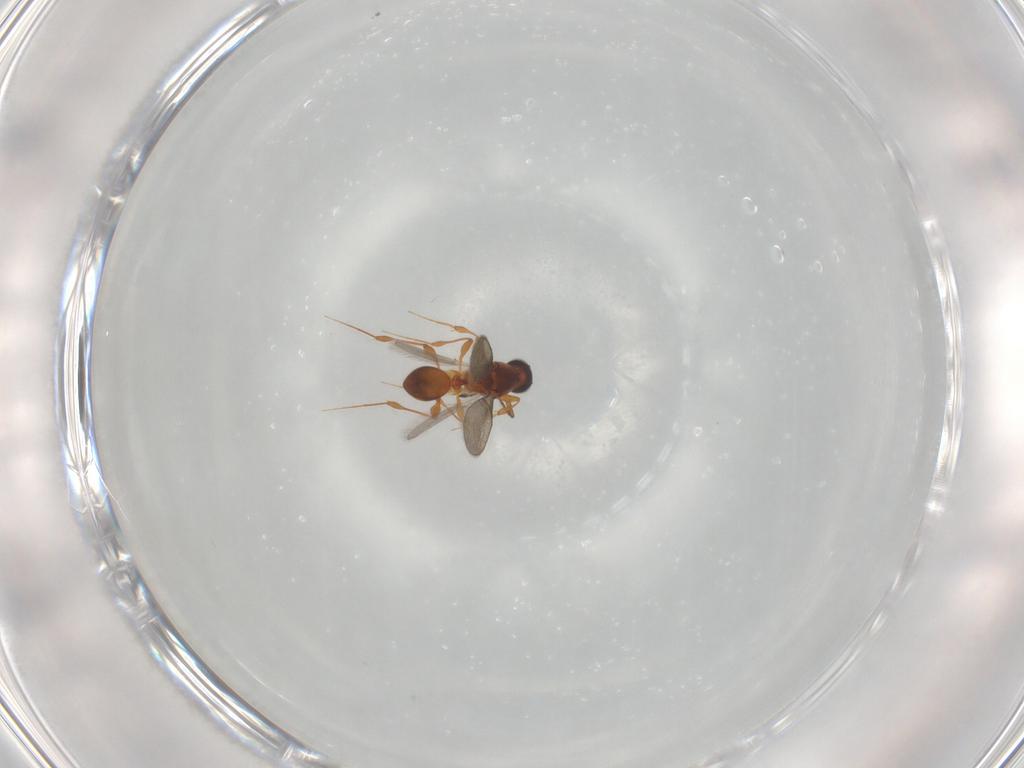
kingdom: Animalia
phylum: Arthropoda
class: Insecta
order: Hymenoptera
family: Platygastridae
